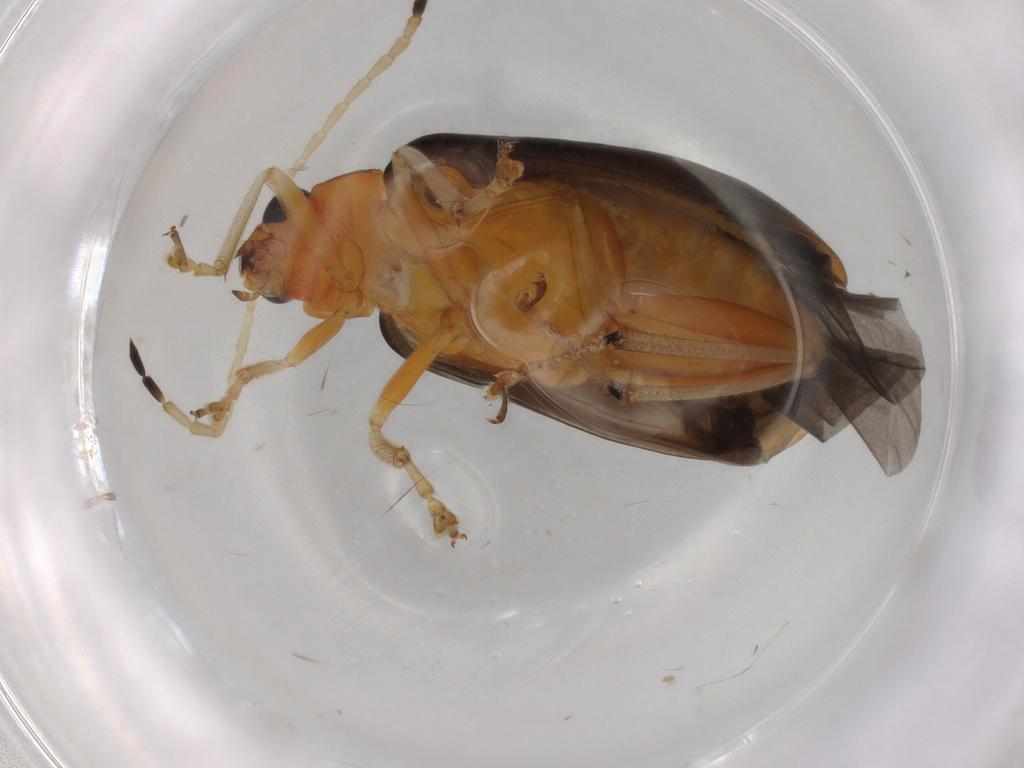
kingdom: Animalia
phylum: Arthropoda
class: Insecta
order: Coleoptera
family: Chrysomelidae
